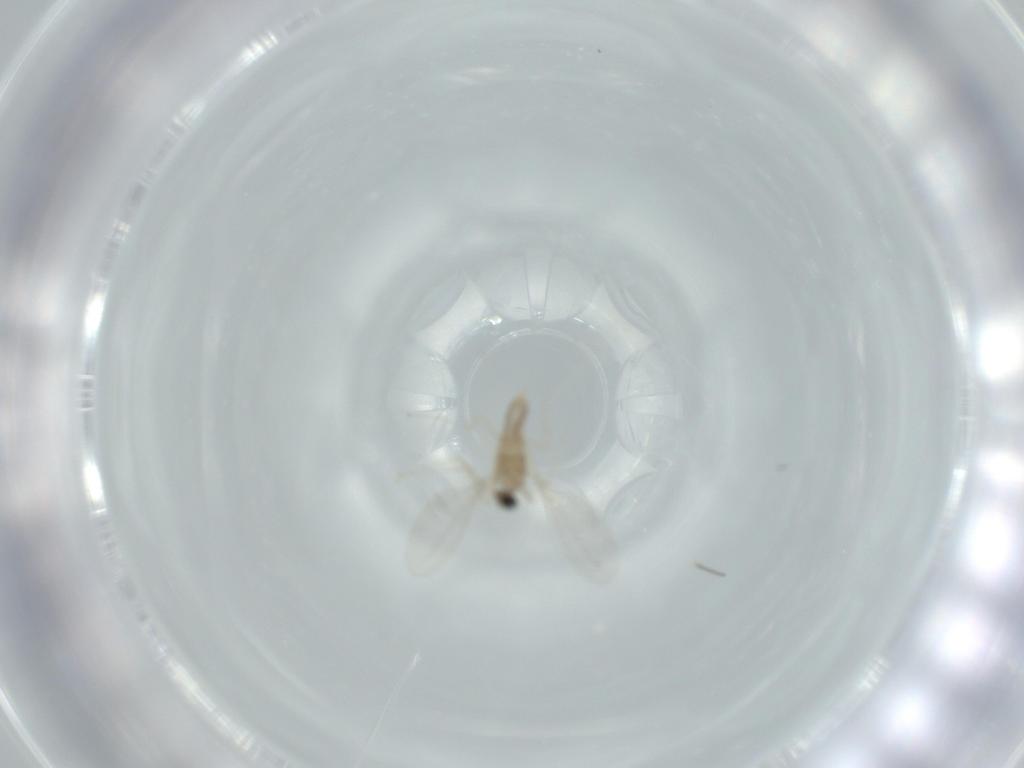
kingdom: Animalia
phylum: Arthropoda
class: Insecta
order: Diptera
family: Cecidomyiidae
